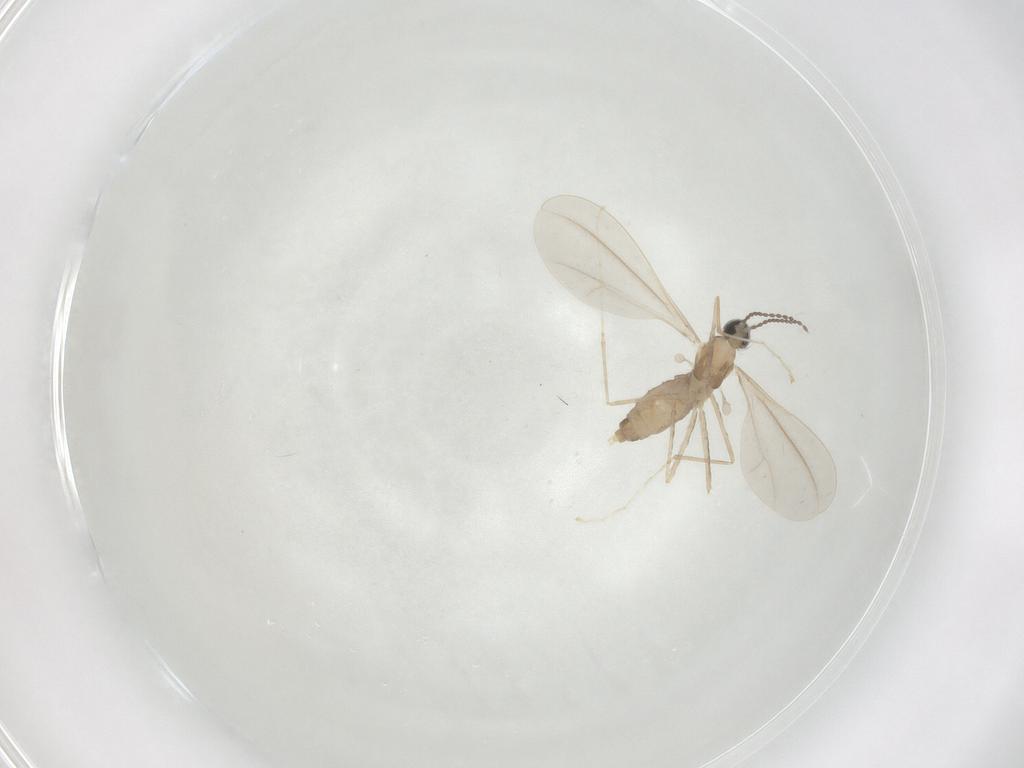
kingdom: Animalia
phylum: Arthropoda
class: Insecta
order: Diptera
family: Cecidomyiidae
